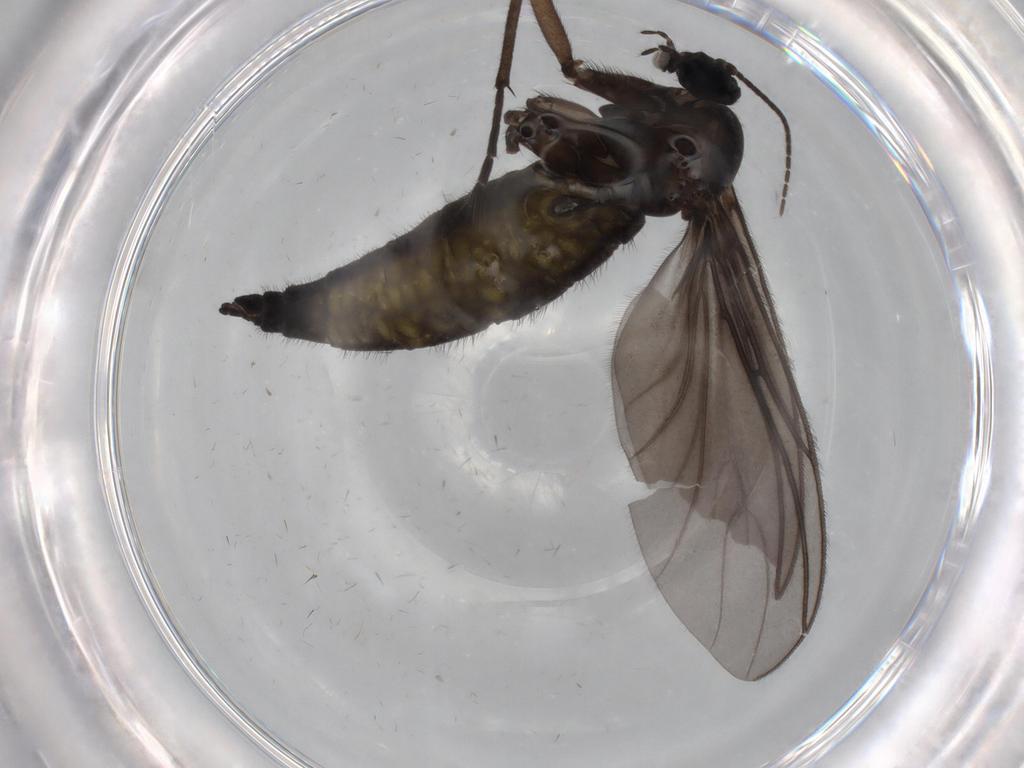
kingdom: Animalia
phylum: Arthropoda
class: Insecta
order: Diptera
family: Sciaridae
